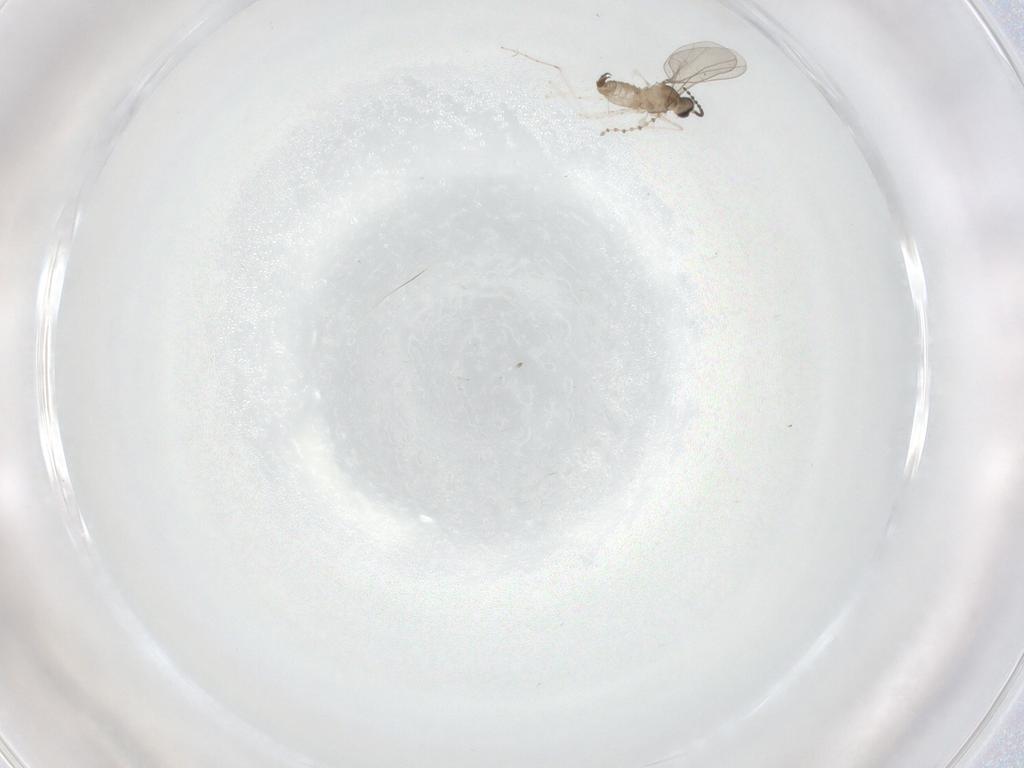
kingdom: Animalia
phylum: Arthropoda
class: Insecta
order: Diptera
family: Cecidomyiidae
